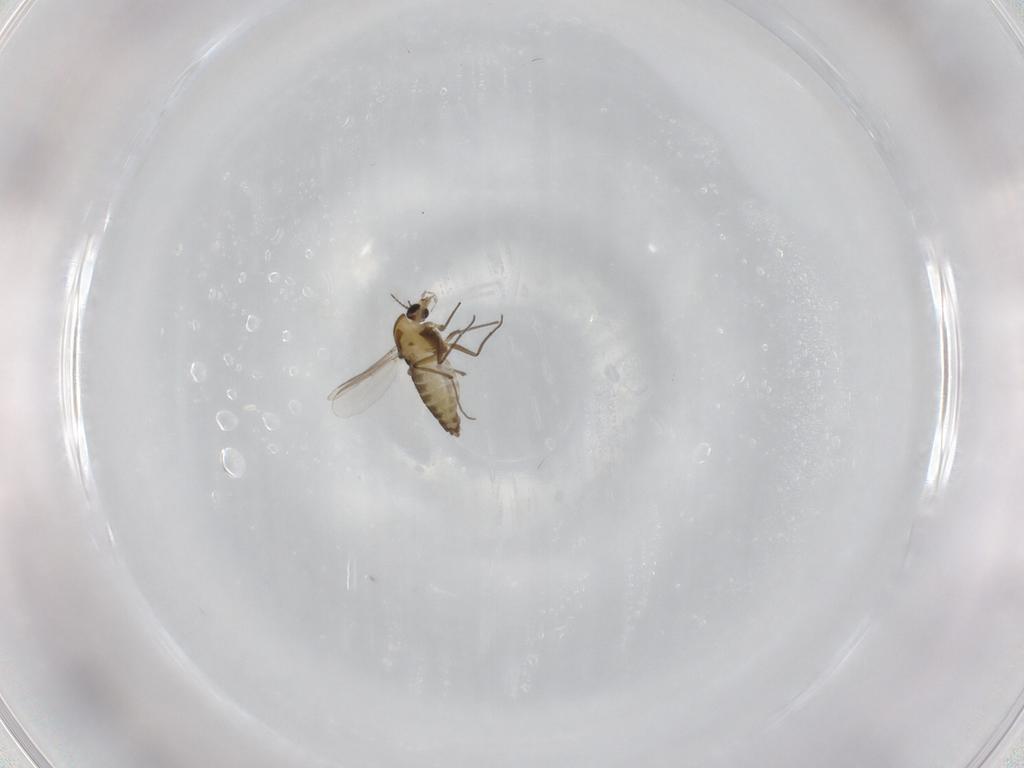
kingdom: Animalia
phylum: Arthropoda
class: Insecta
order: Diptera
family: Chironomidae
